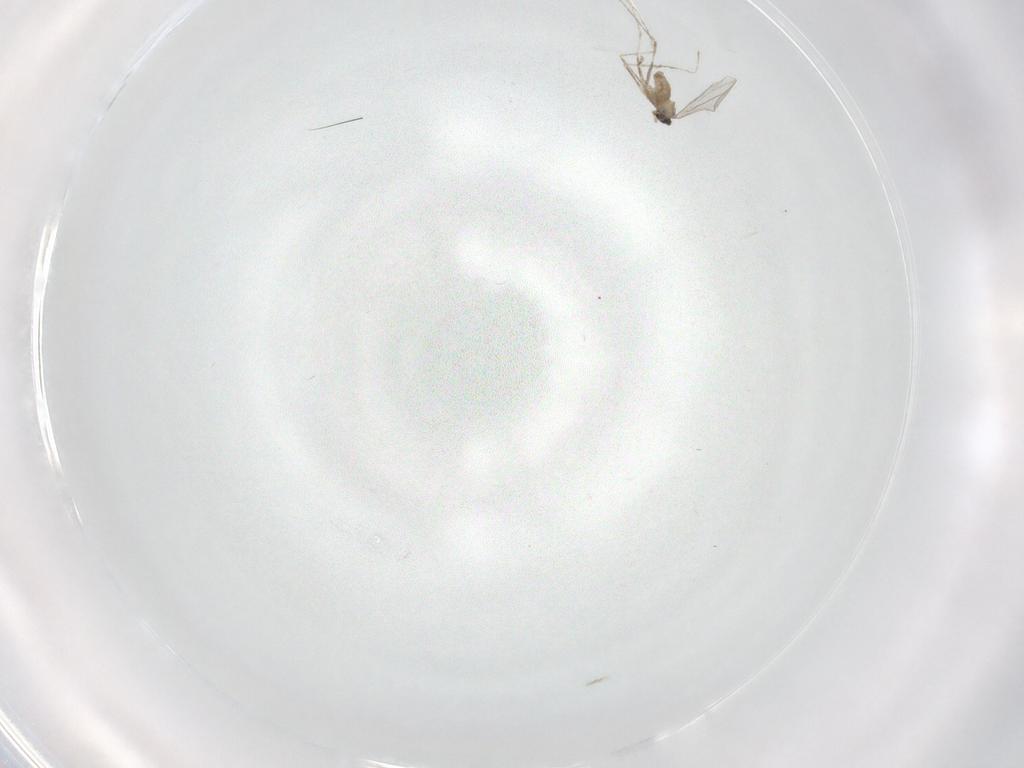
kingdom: Animalia
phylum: Arthropoda
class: Insecta
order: Diptera
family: Cecidomyiidae
